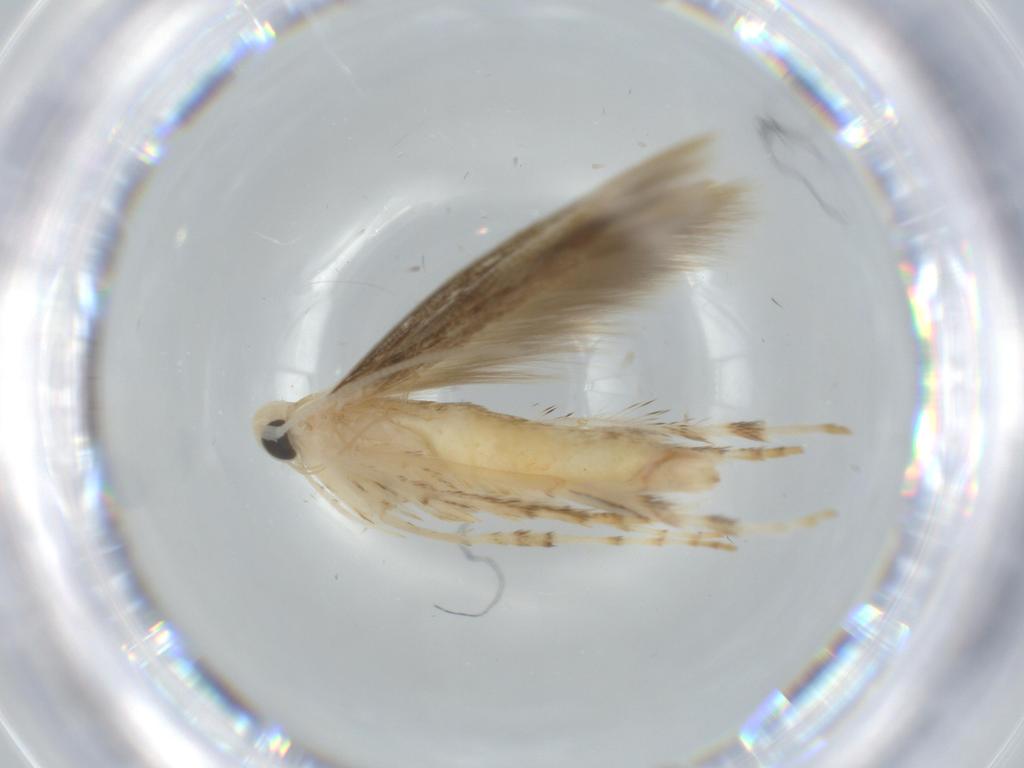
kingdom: Animalia
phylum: Arthropoda
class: Insecta
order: Lepidoptera
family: Gracillariidae
